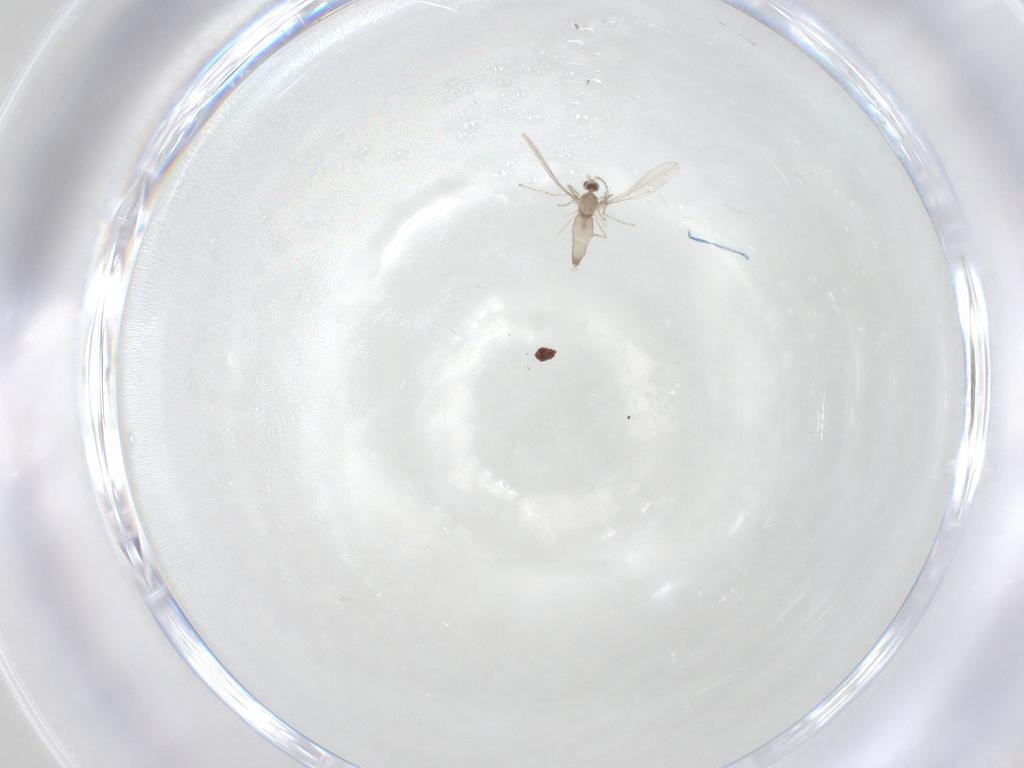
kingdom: Animalia
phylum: Arthropoda
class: Insecta
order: Diptera
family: Cecidomyiidae
